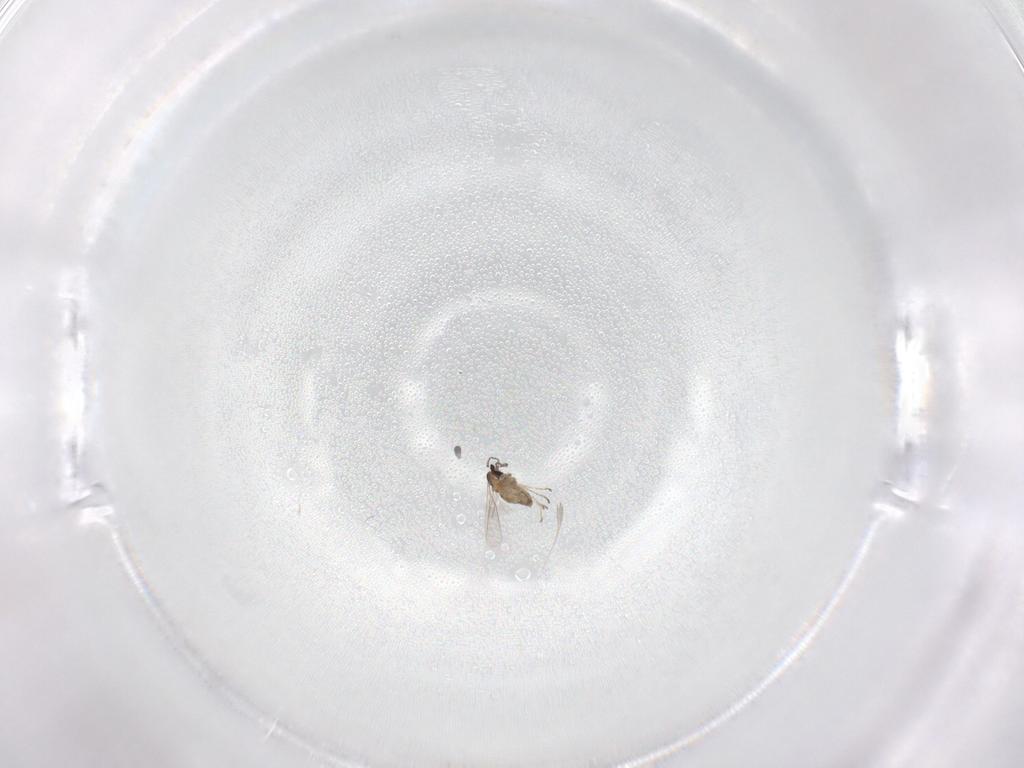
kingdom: Animalia
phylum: Arthropoda
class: Insecta
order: Diptera
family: Cecidomyiidae
